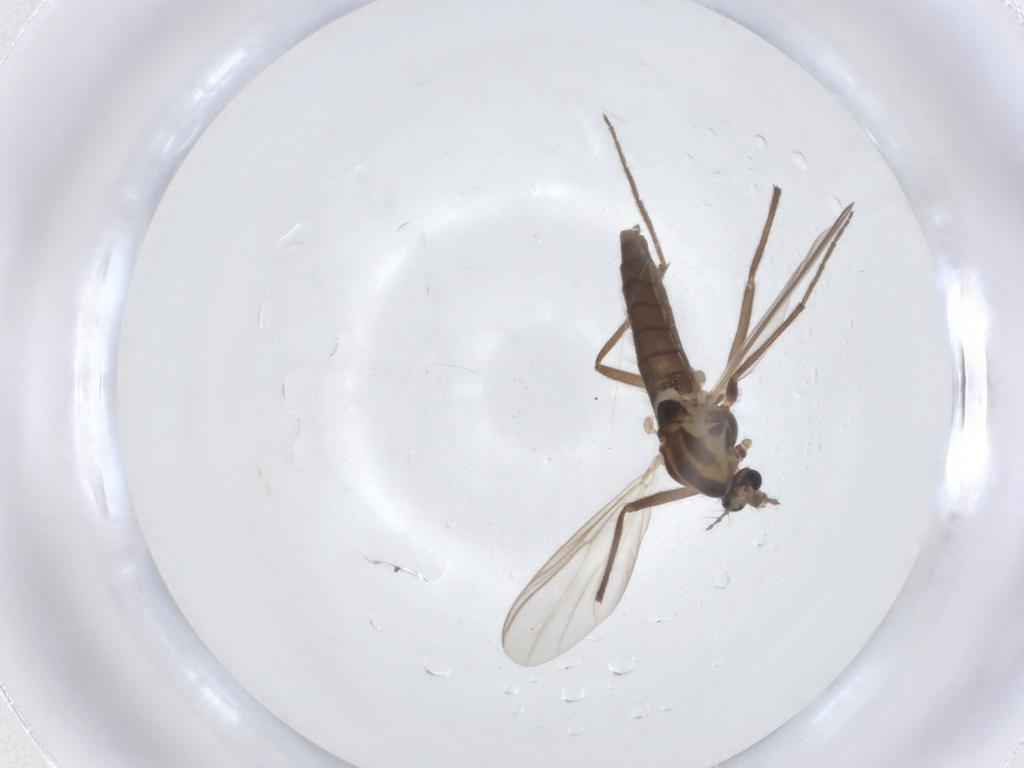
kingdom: Animalia
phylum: Arthropoda
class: Insecta
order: Diptera
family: Chironomidae
